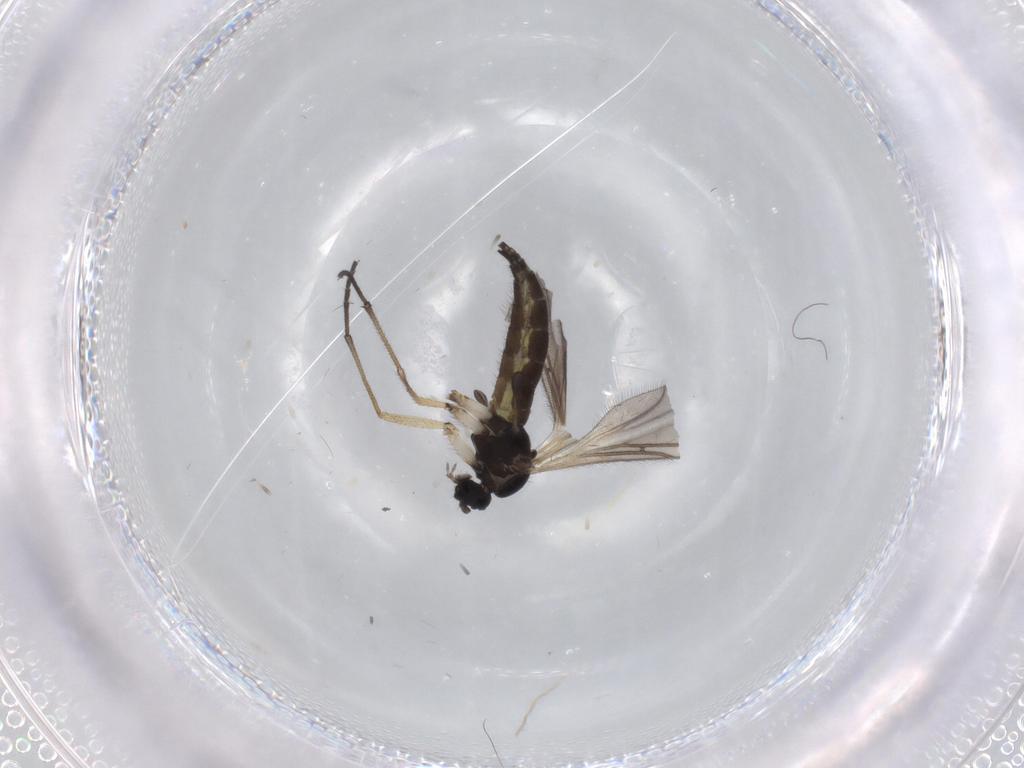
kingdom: Animalia
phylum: Arthropoda
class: Insecta
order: Diptera
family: Sciaridae
